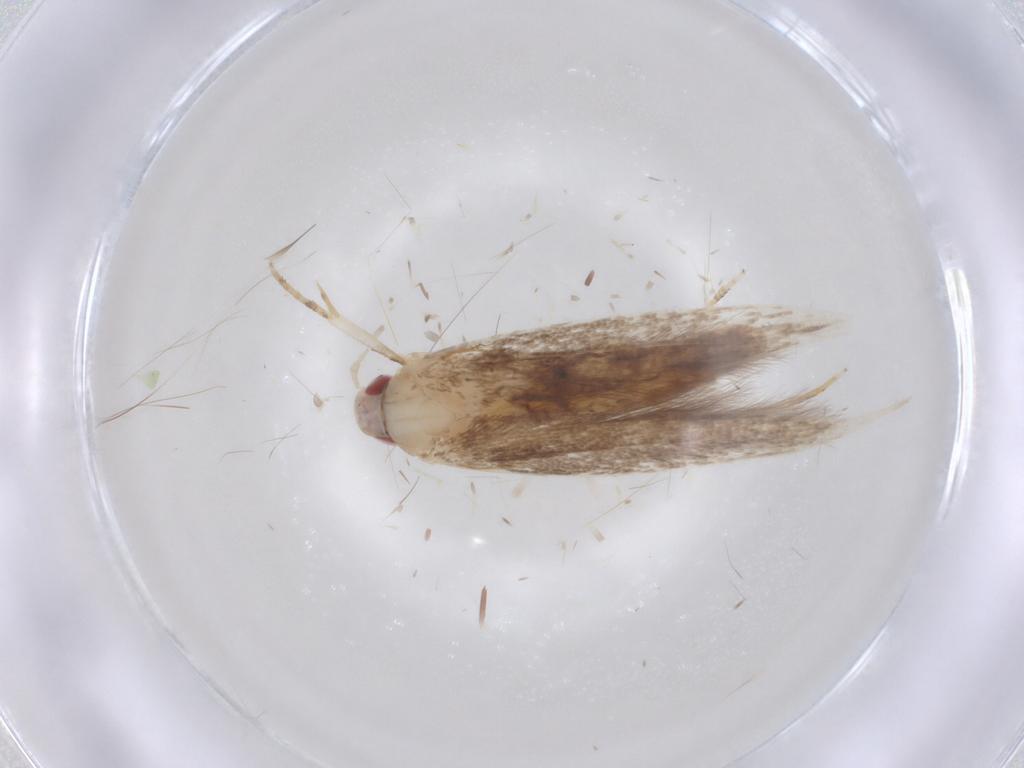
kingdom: Animalia
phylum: Arthropoda
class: Insecta
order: Lepidoptera
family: Cosmopterigidae
